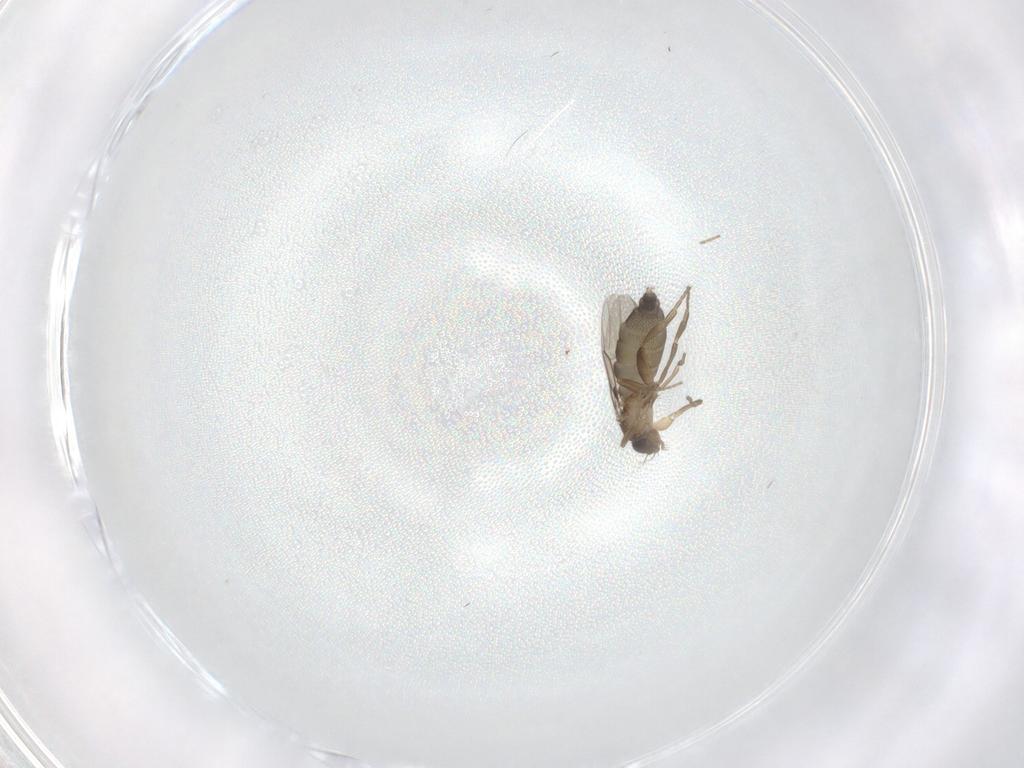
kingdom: Animalia
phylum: Arthropoda
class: Insecta
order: Diptera
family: Phoridae
